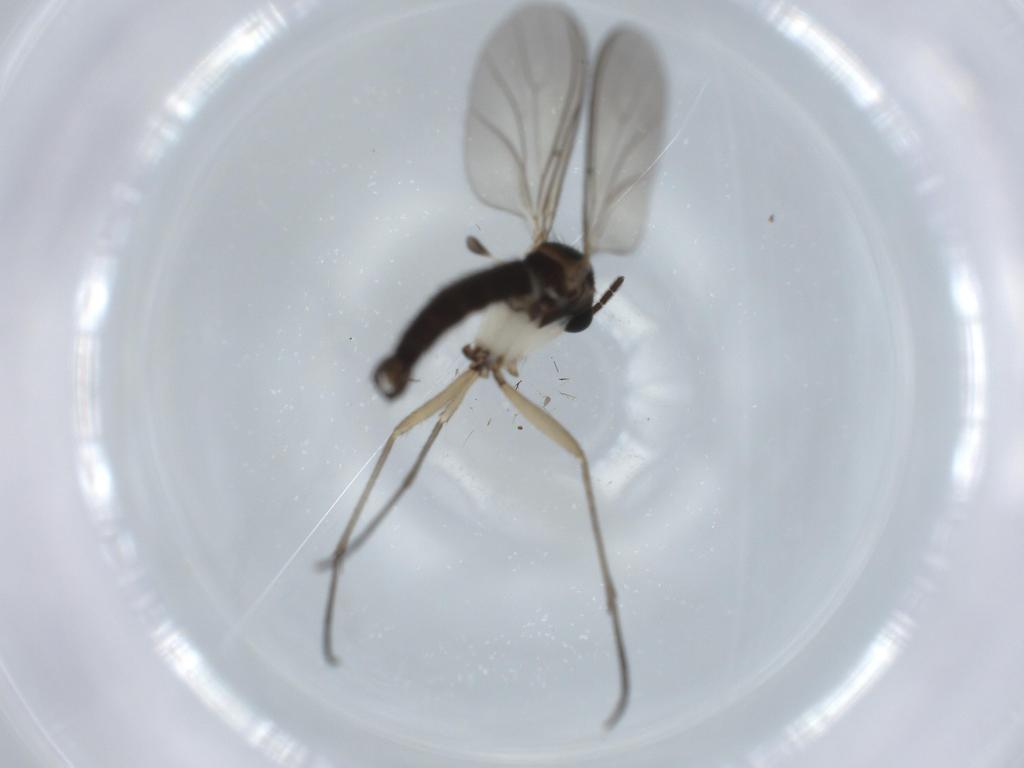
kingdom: Animalia
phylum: Arthropoda
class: Insecta
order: Diptera
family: Sciaridae
